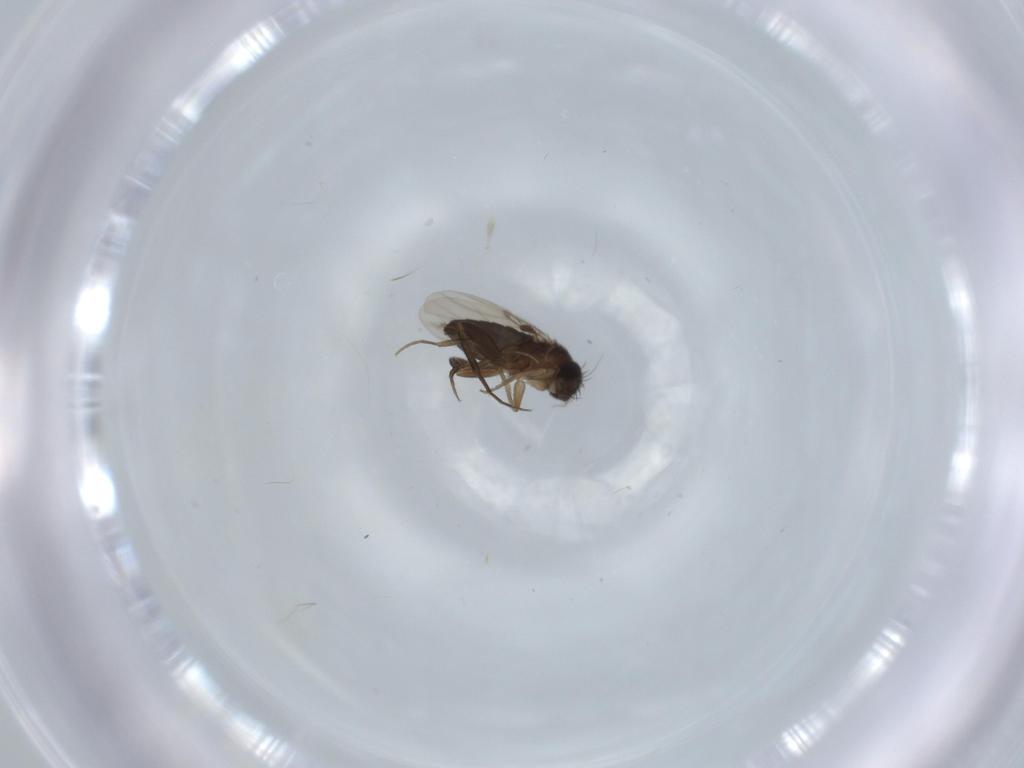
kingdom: Animalia
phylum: Arthropoda
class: Insecta
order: Diptera
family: Phoridae
